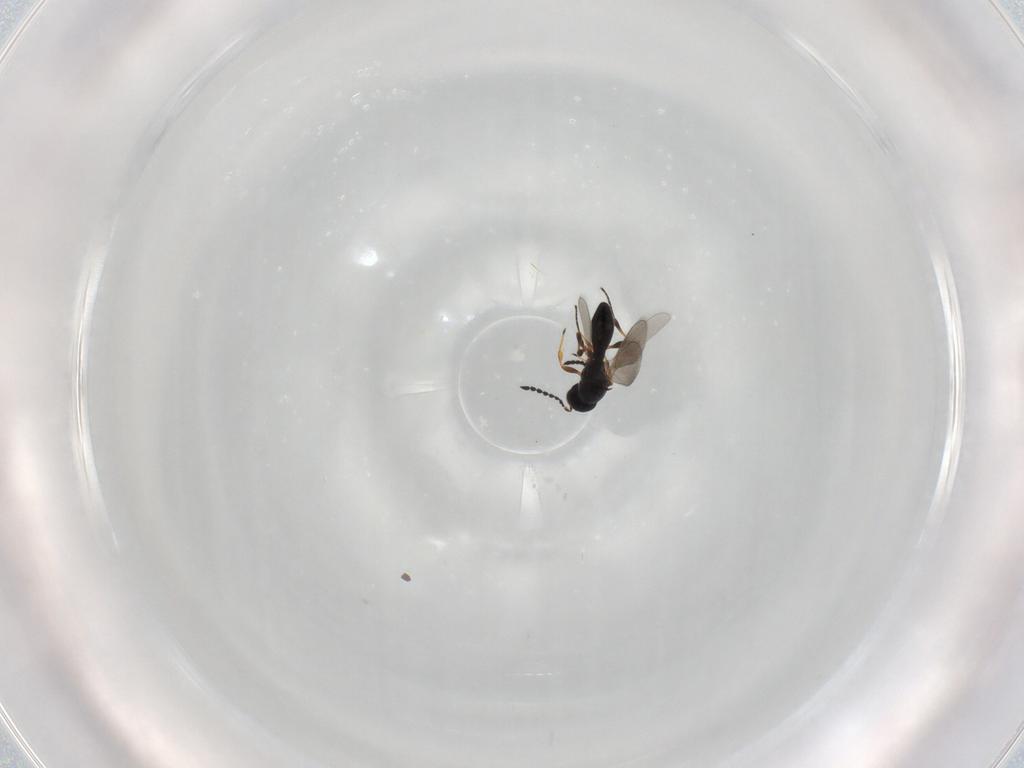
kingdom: Animalia
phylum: Arthropoda
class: Insecta
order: Hymenoptera
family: Platygastridae
